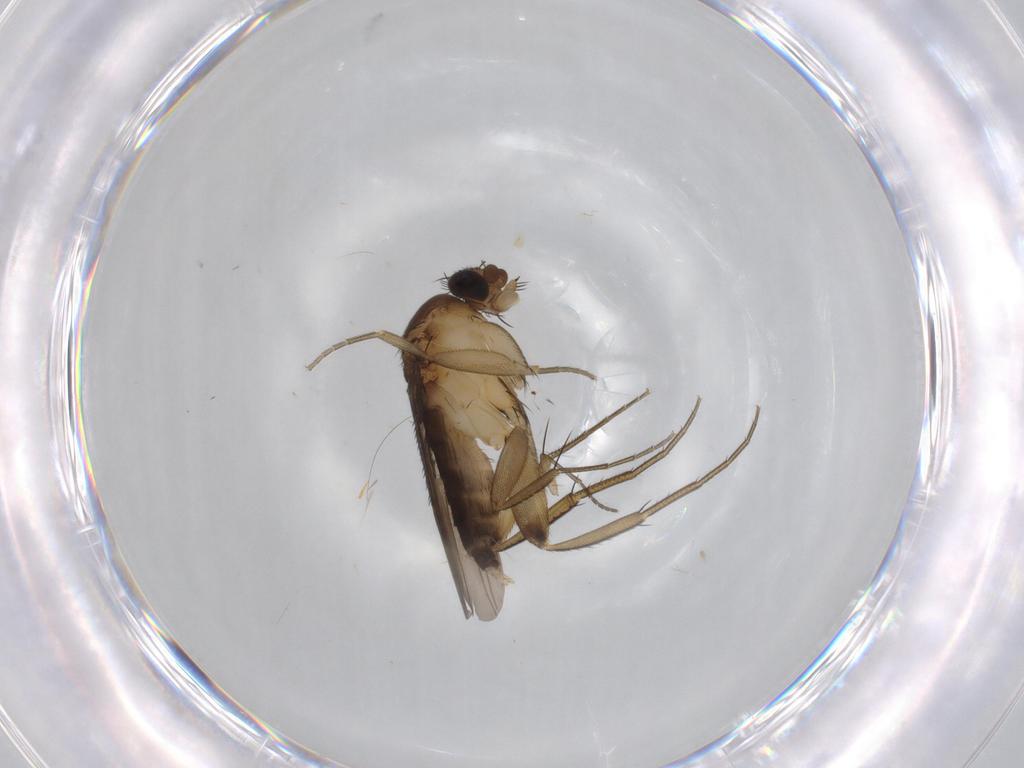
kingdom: Animalia
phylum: Arthropoda
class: Insecta
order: Diptera
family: Phoridae
